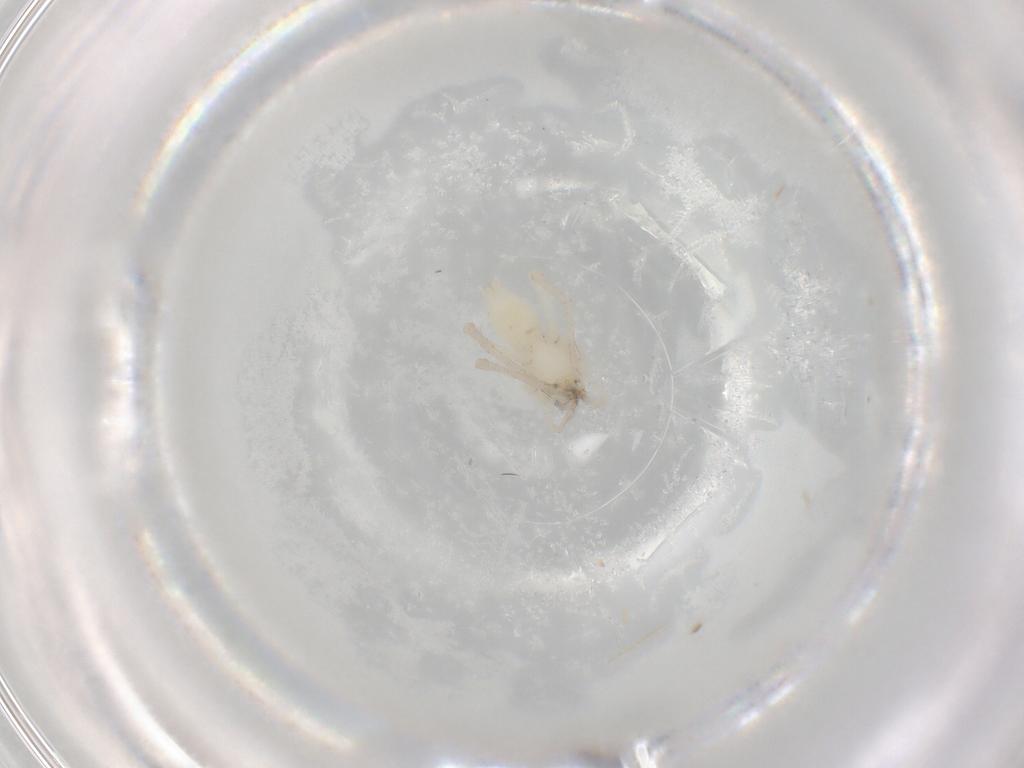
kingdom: Animalia
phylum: Arthropoda
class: Arachnida
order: Araneae
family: Anyphaenidae
